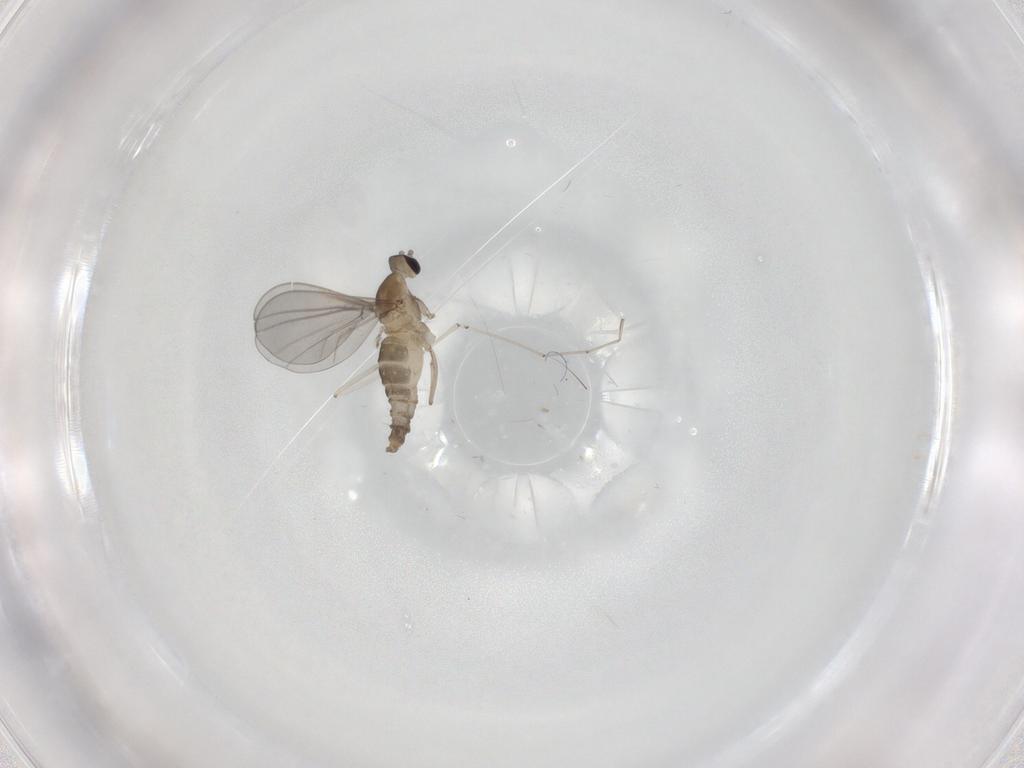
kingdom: Animalia
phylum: Arthropoda
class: Insecta
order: Diptera
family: Cecidomyiidae
